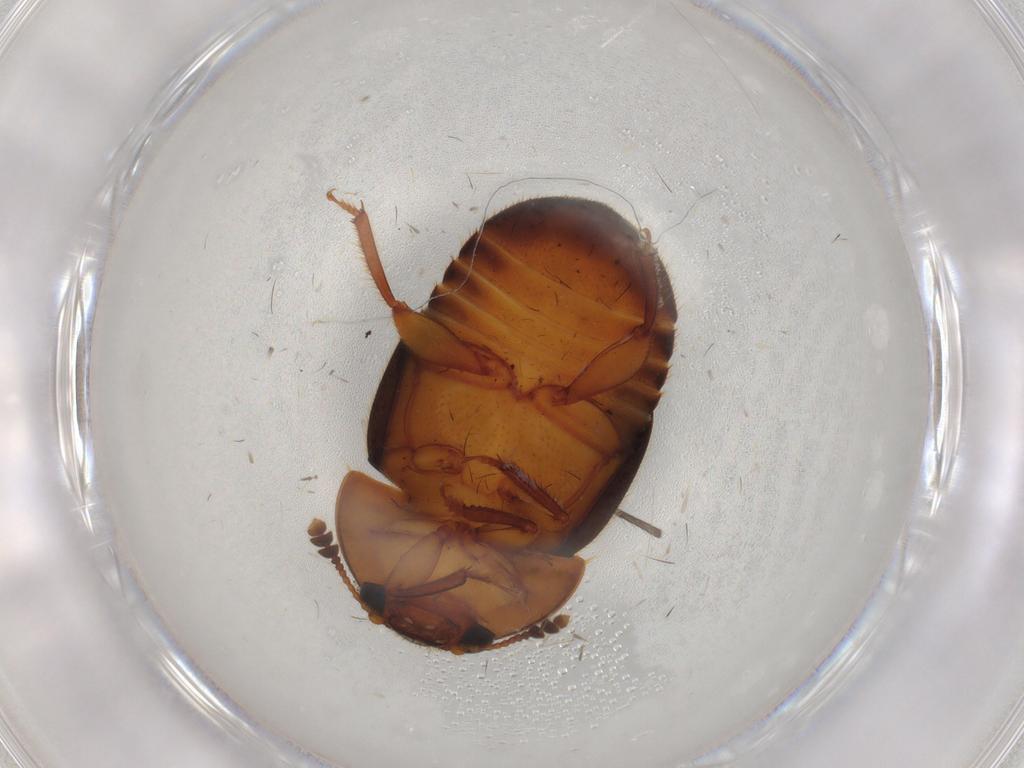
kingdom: Animalia
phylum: Arthropoda
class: Insecta
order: Coleoptera
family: Nitidulidae
